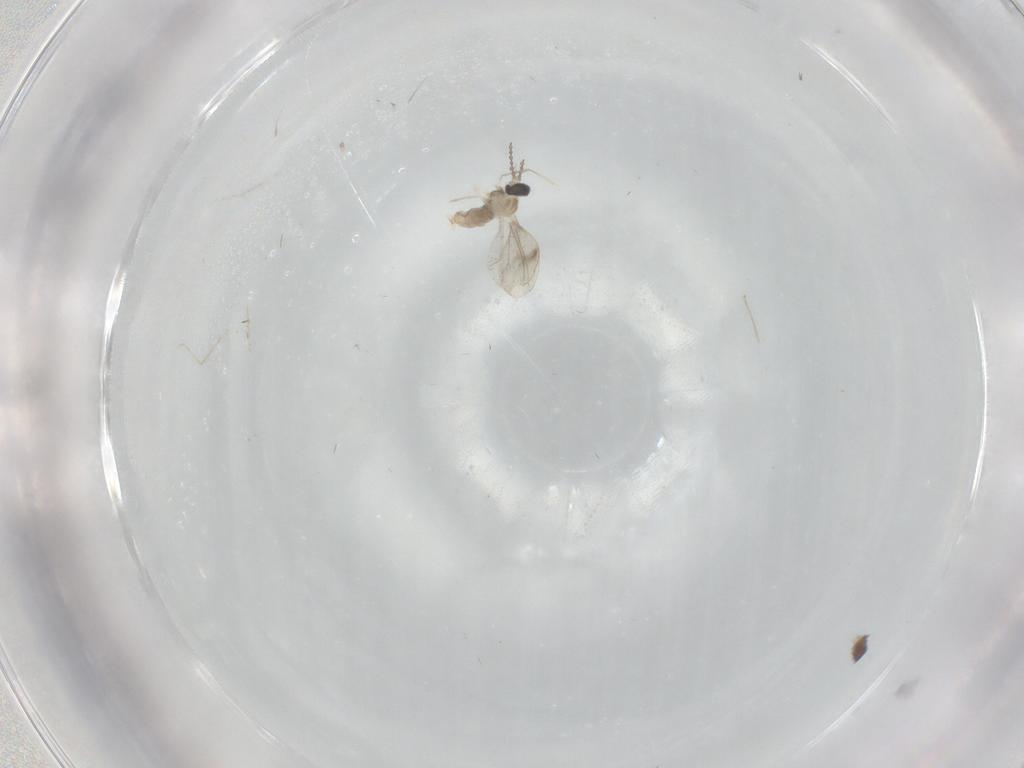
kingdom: Animalia
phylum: Arthropoda
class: Insecta
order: Diptera
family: Cecidomyiidae
